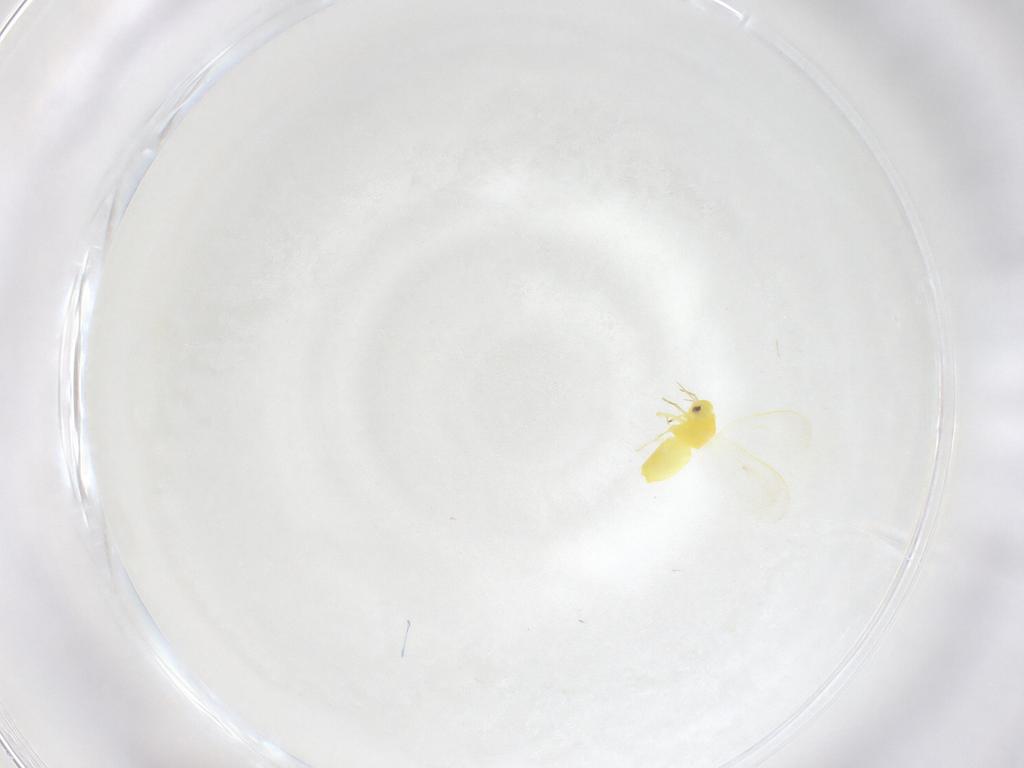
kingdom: Animalia
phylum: Arthropoda
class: Insecta
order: Hemiptera
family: Aleyrodidae
